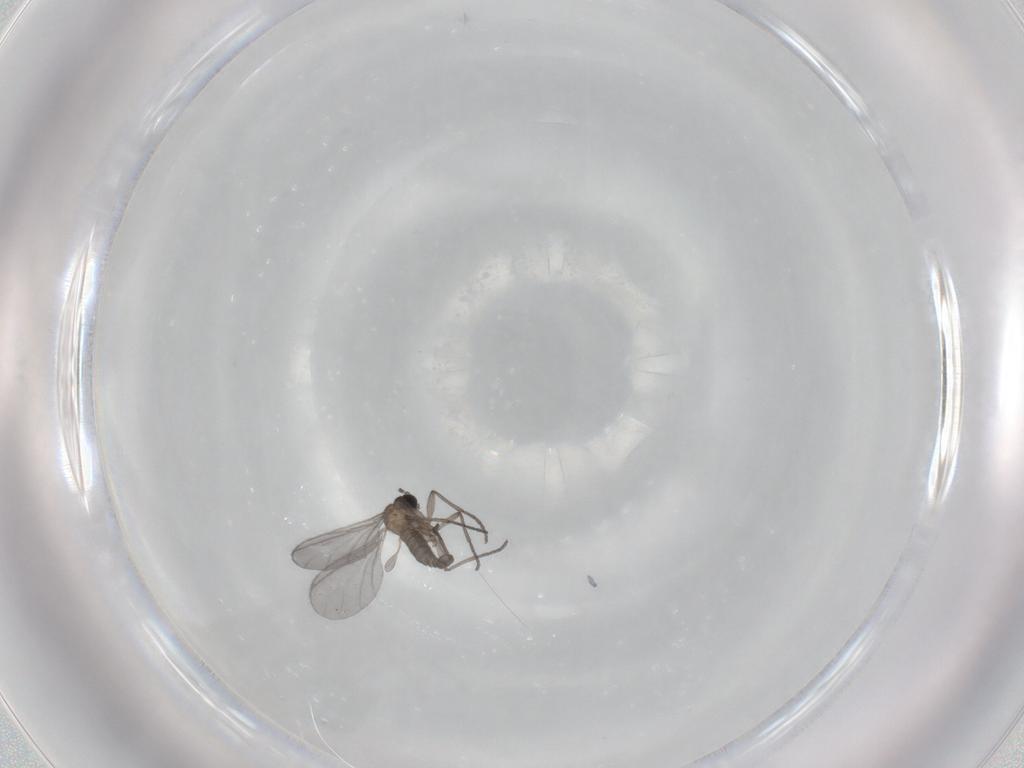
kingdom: Animalia
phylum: Arthropoda
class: Insecta
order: Diptera
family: Sciaridae
